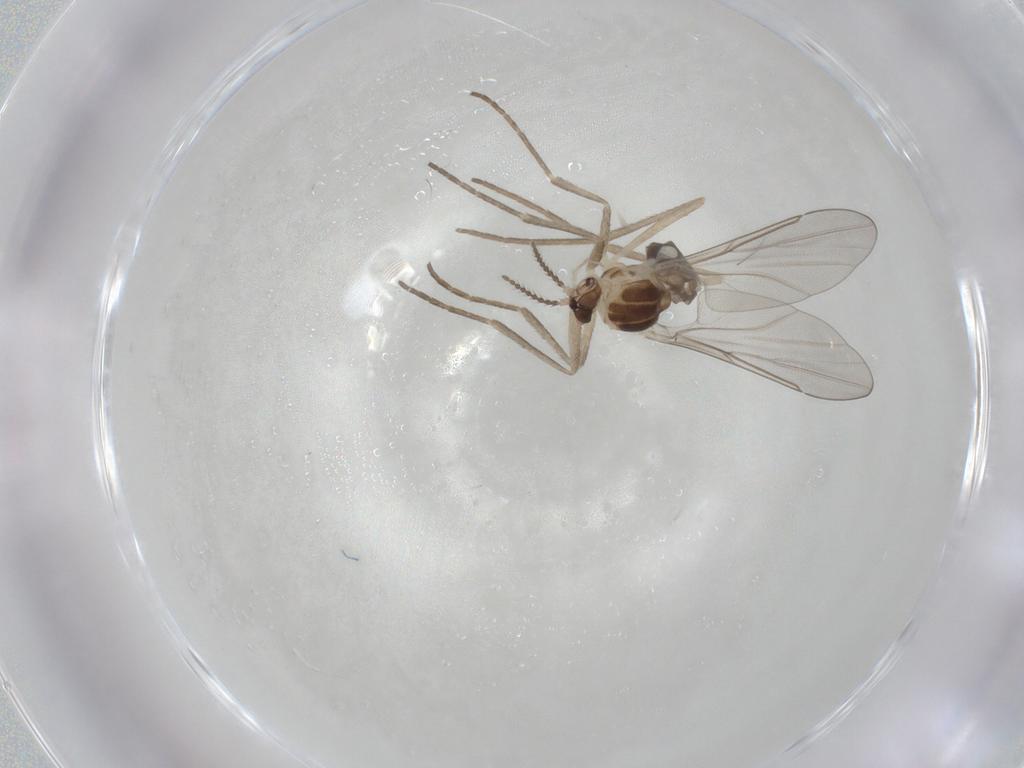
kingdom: Animalia
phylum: Arthropoda
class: Insecta
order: Diptera
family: Cecidomyiidae
